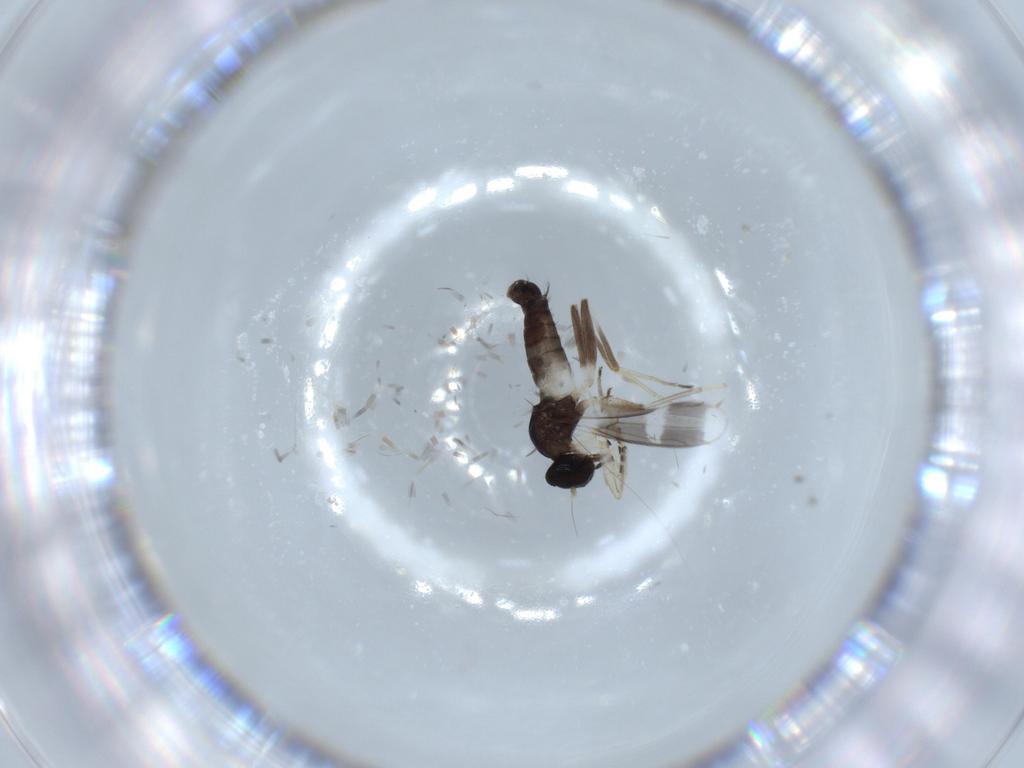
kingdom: Animalia
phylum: Arthropoda
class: Insecta
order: Diptera
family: Hybotidae
